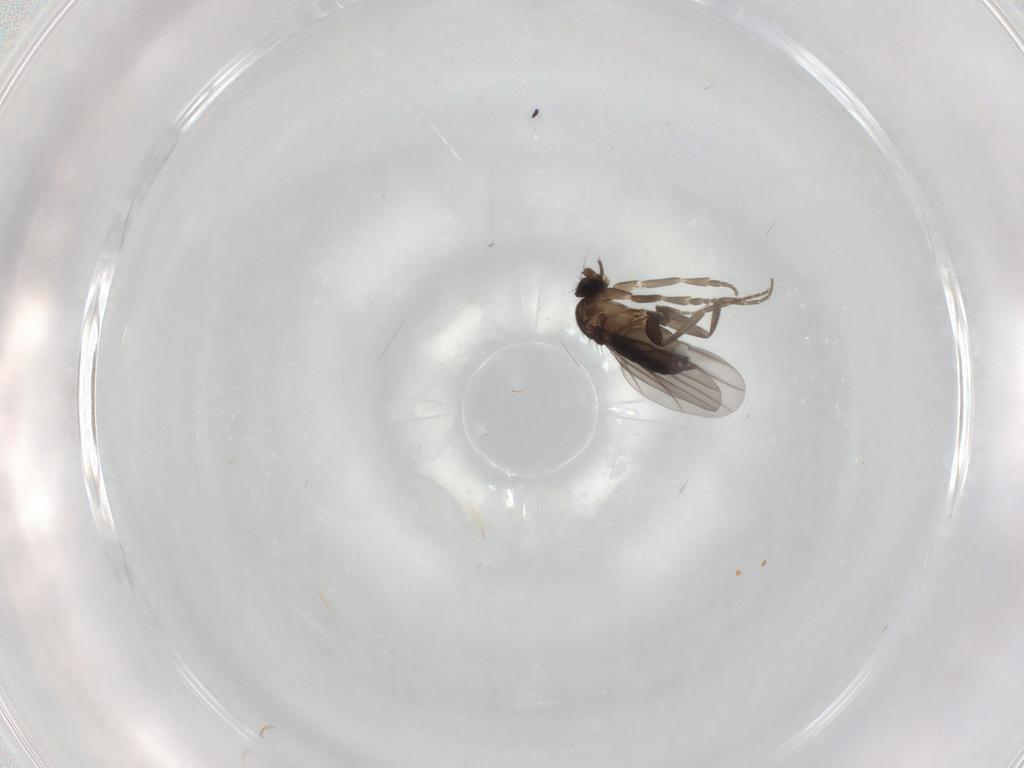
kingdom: Animalia
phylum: Arthropoda
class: Insecta
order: Diptera
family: Phoridae
